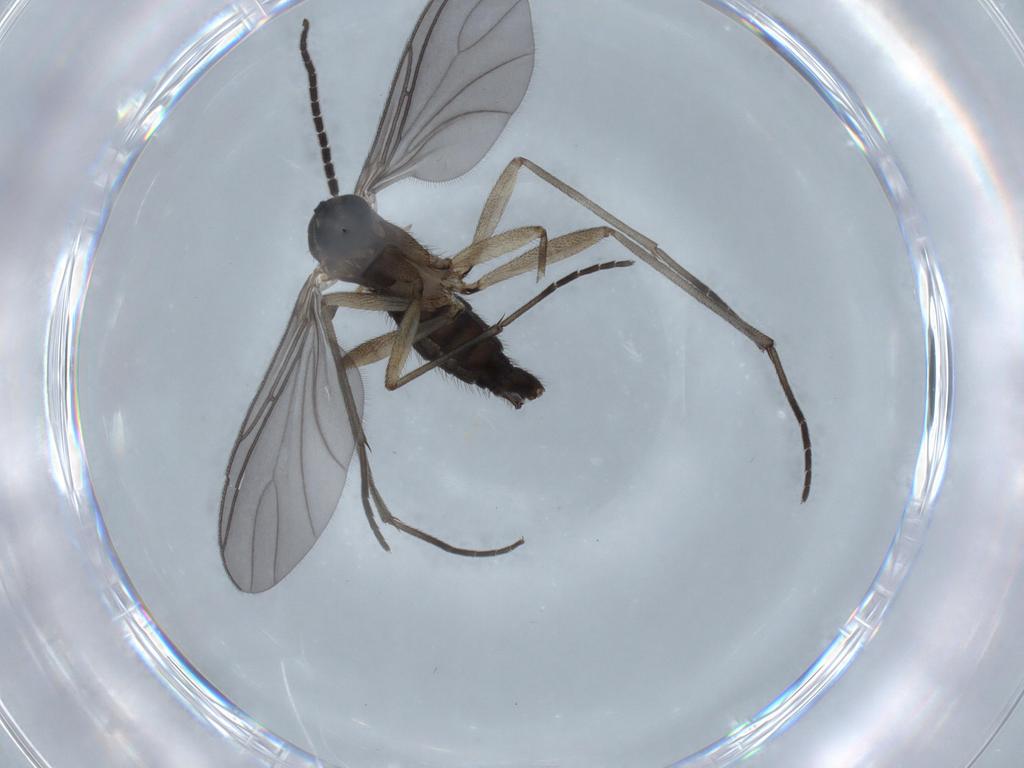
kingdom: Animalia
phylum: Arthropoda
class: Insecta
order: Diptera
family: Sciaridae
